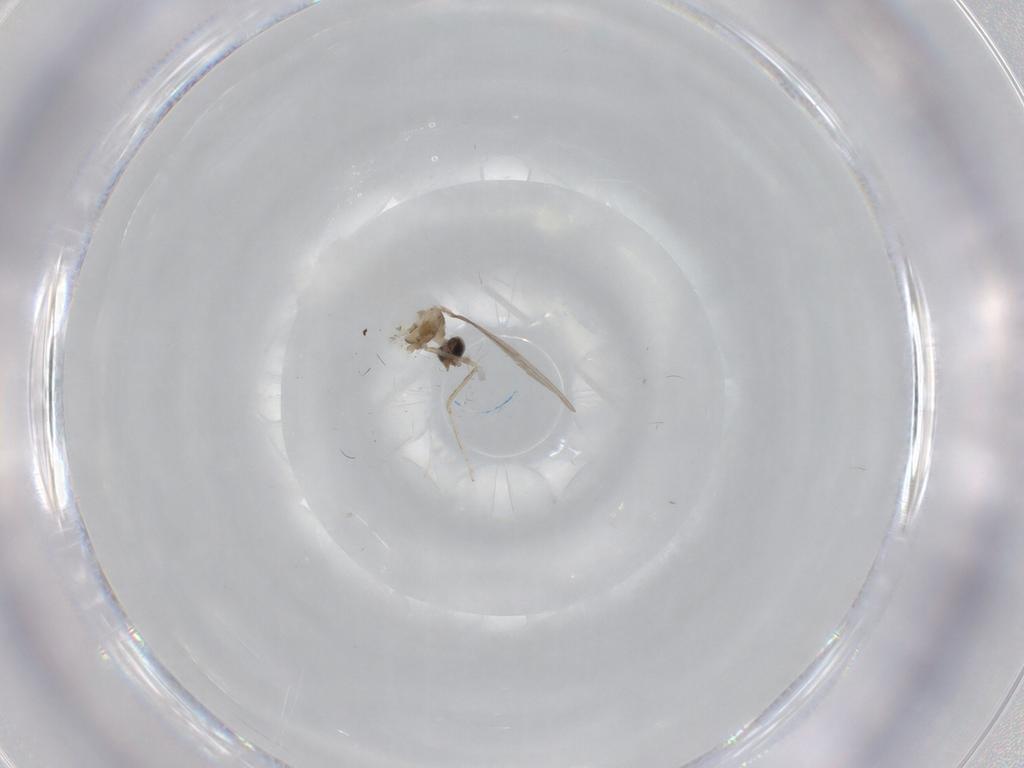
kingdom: Animalia
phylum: Arthropoda
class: Insecta
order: Diptera
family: Cecidomyiidae
